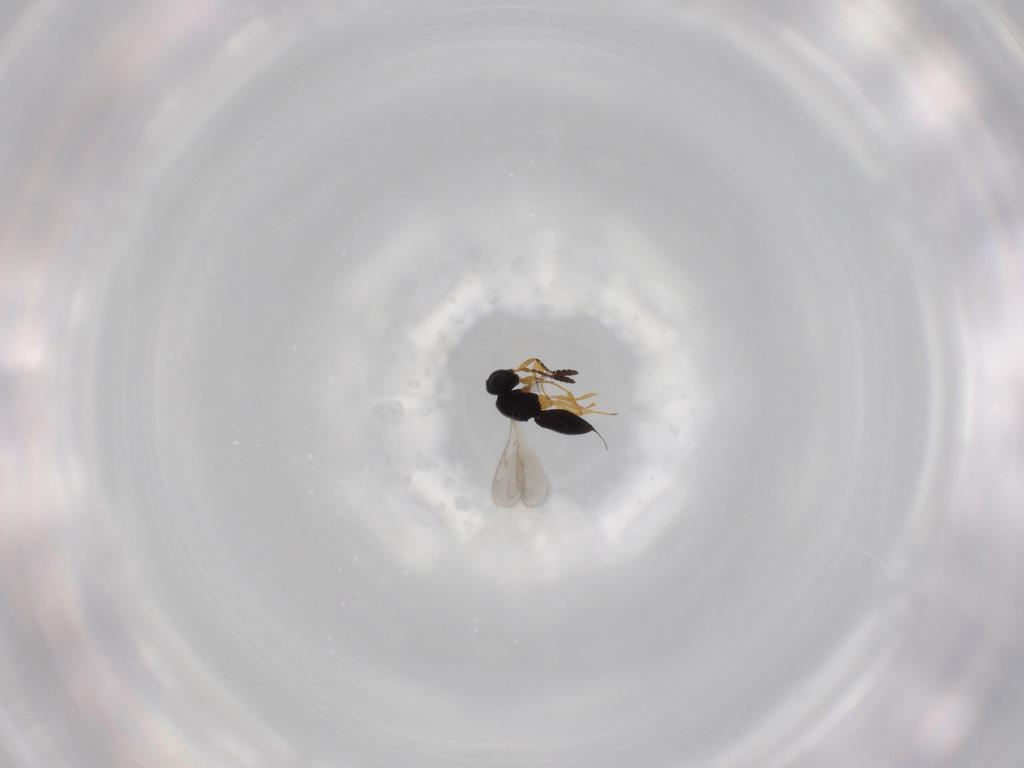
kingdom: Animalia
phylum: Arthropoda
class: Insecta
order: Hymenoptera
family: Scelionidae
